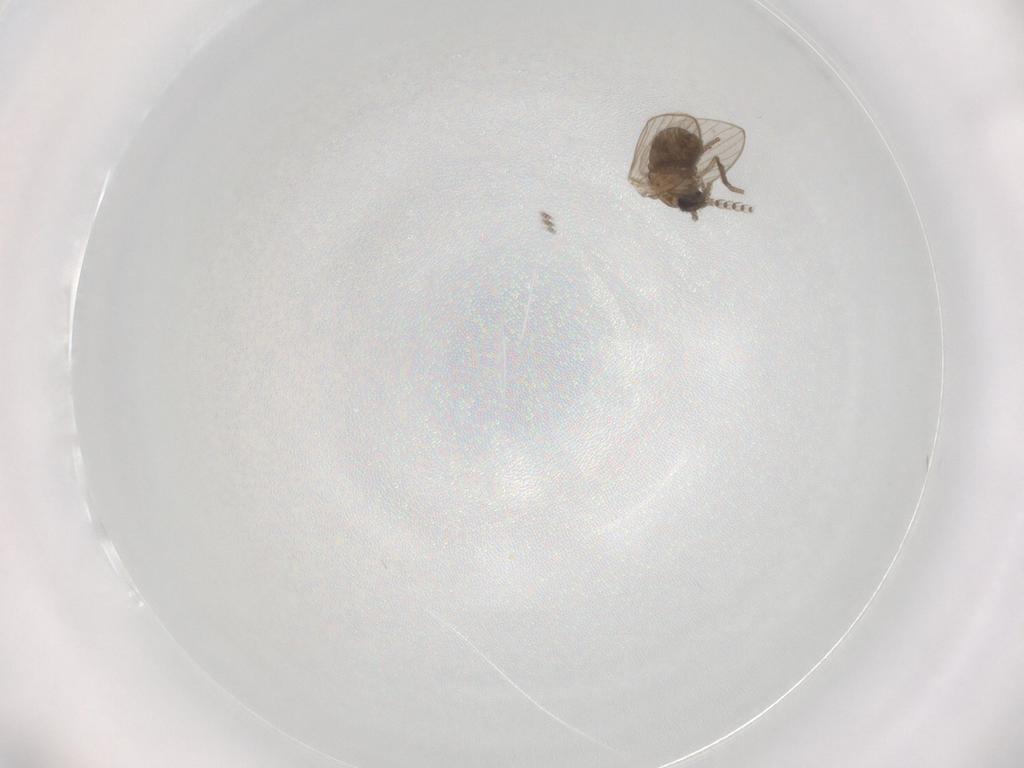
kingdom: Animalia
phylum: Arthropoda
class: Insecta
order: Diptera
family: Psychodidae
